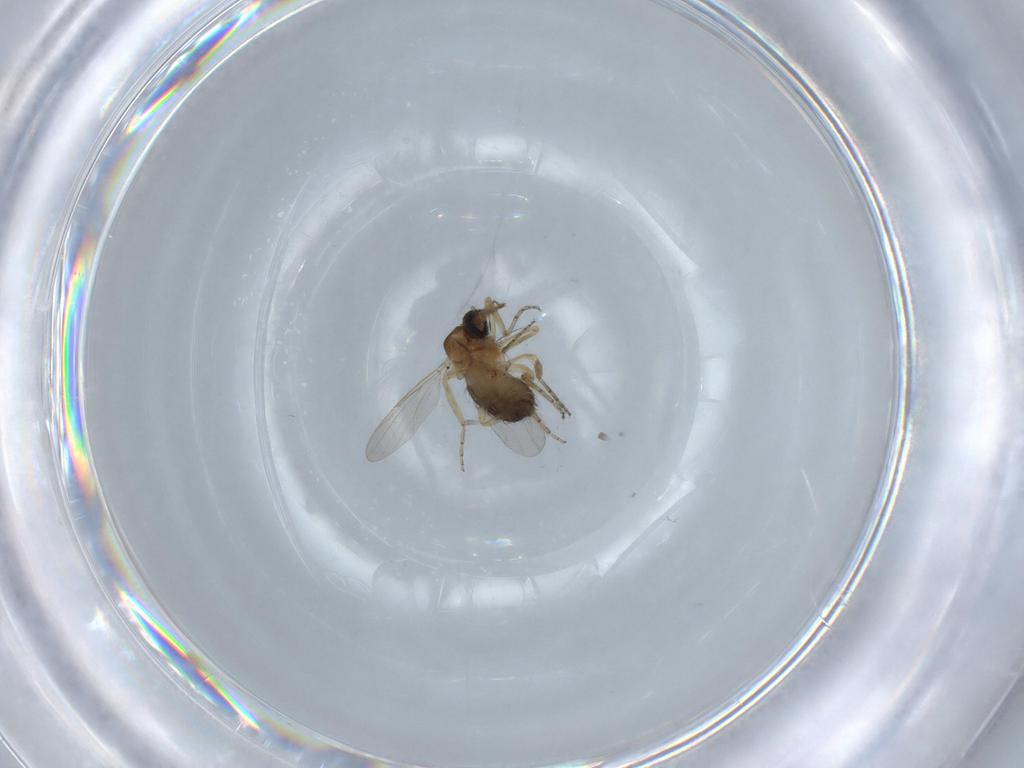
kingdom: Animalia
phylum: Arthropoda
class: Insecta
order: Diptera
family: Ceratopogonidae
